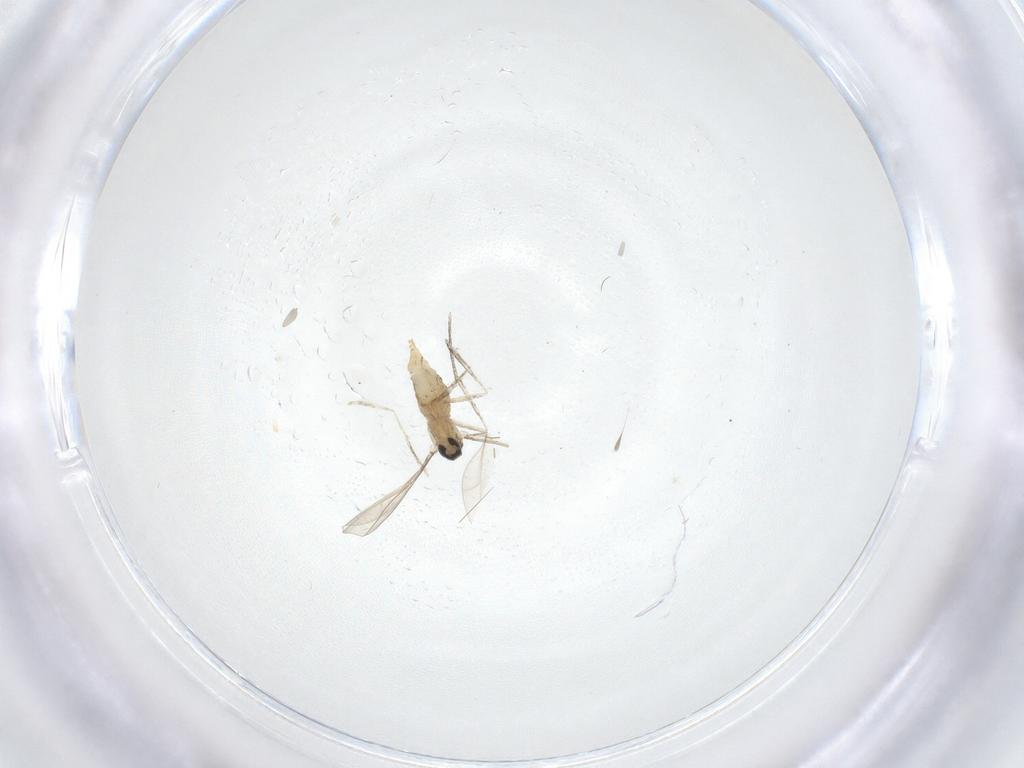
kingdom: Animalia
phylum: Arthropoda
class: Insecta
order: Diptera
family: Cecidomyiidae
